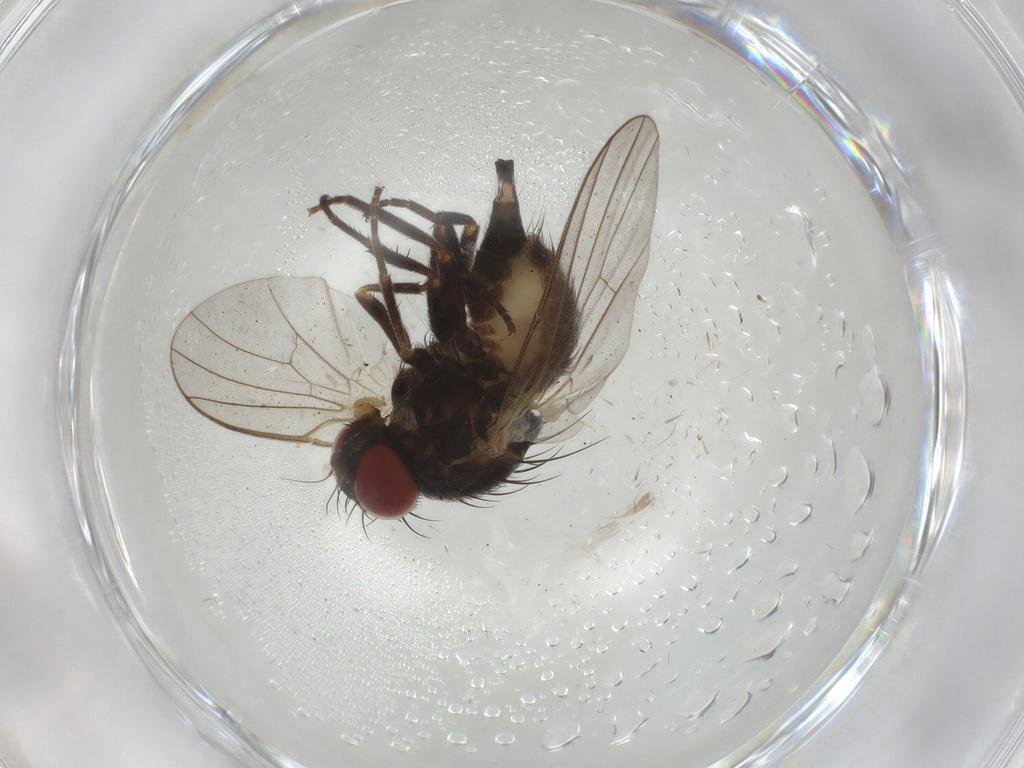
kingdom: Animalia
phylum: Arthropoda
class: Insecta
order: Diptera
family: Agromyzidae
